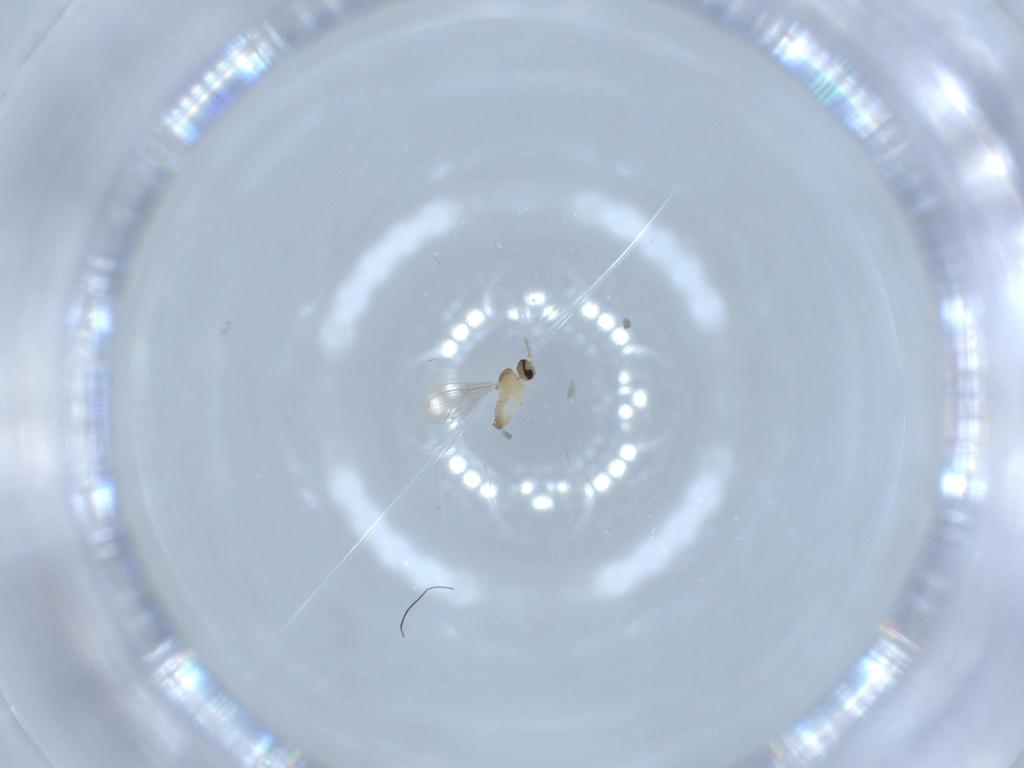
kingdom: Animalia
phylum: Arthropoda
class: Insecta
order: Diptera
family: Cecidomyiidae
